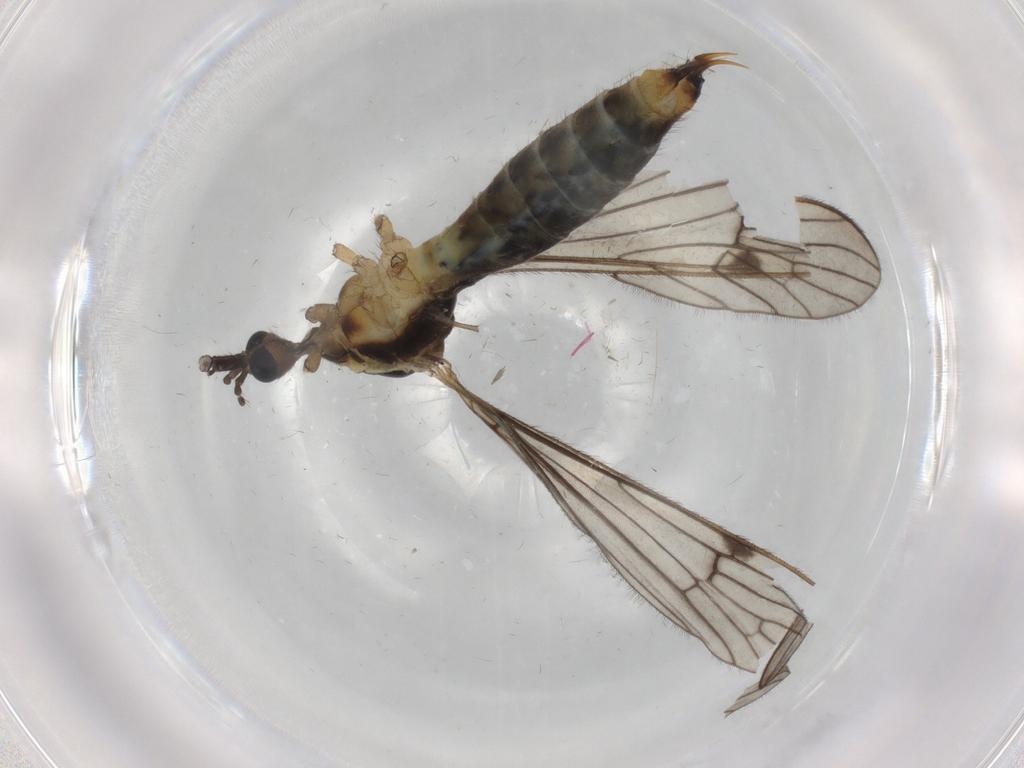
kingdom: Animalia
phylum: Arthropoda
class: Insecta
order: Diptera
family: Limoniidae
